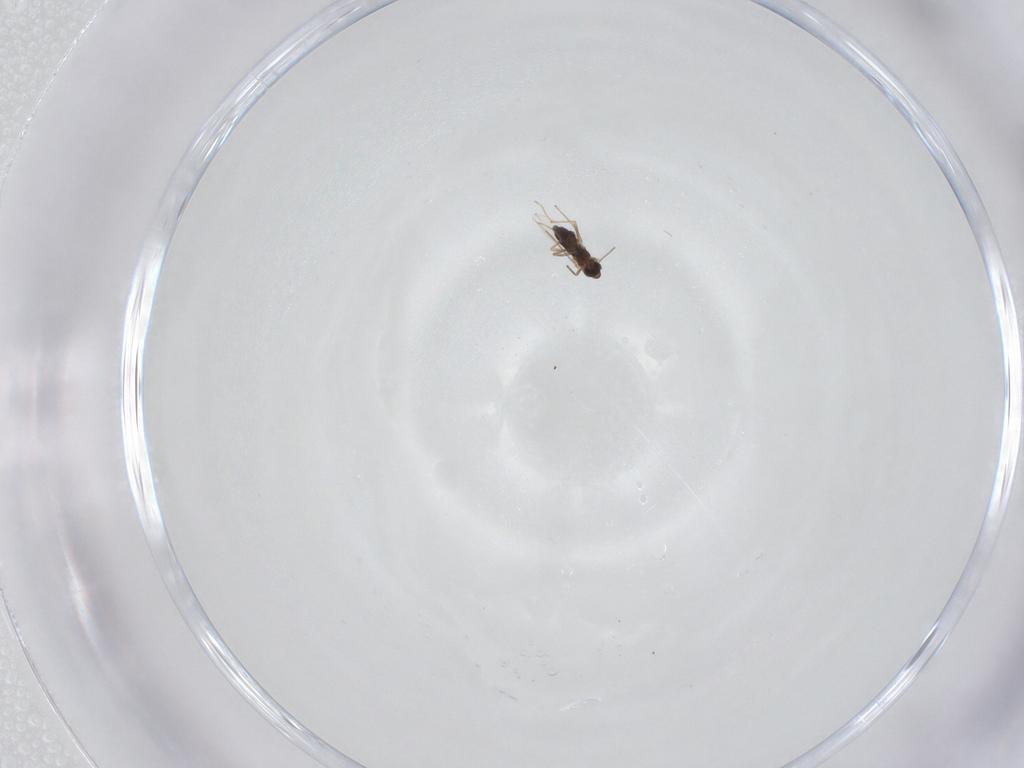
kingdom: Animalia
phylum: Arthropoda
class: Insecta
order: Diptera
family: Chironomidae
